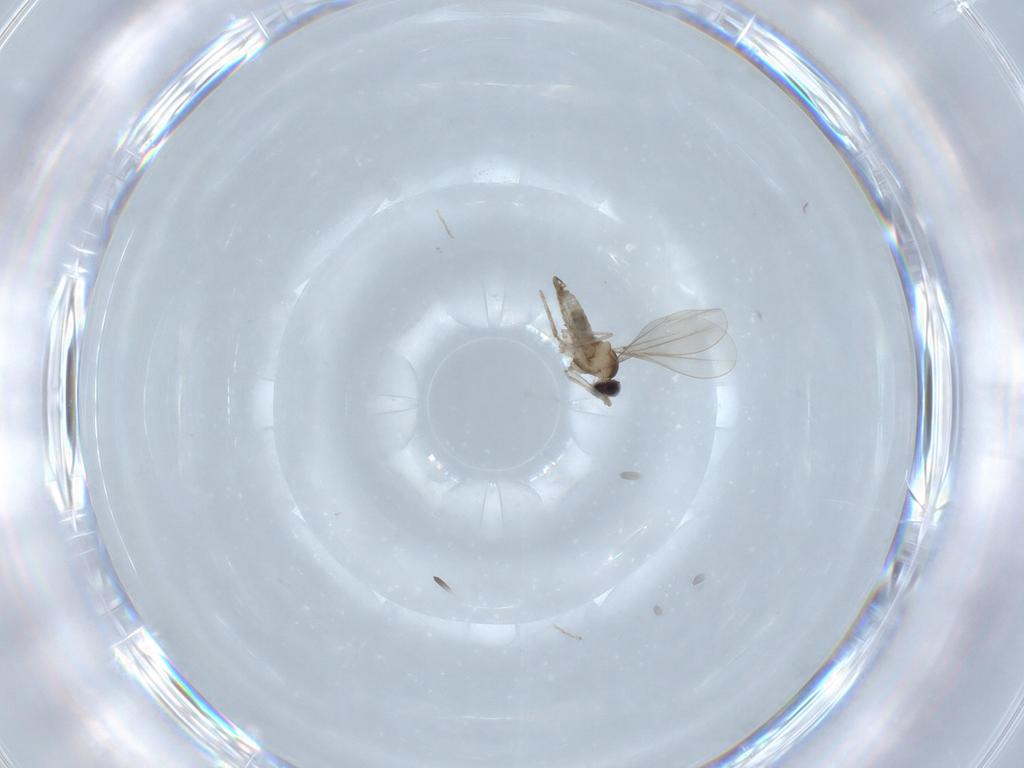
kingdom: Animalia
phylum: Arthropoda
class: Insecta
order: Diptera
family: Cecidomyiidae
